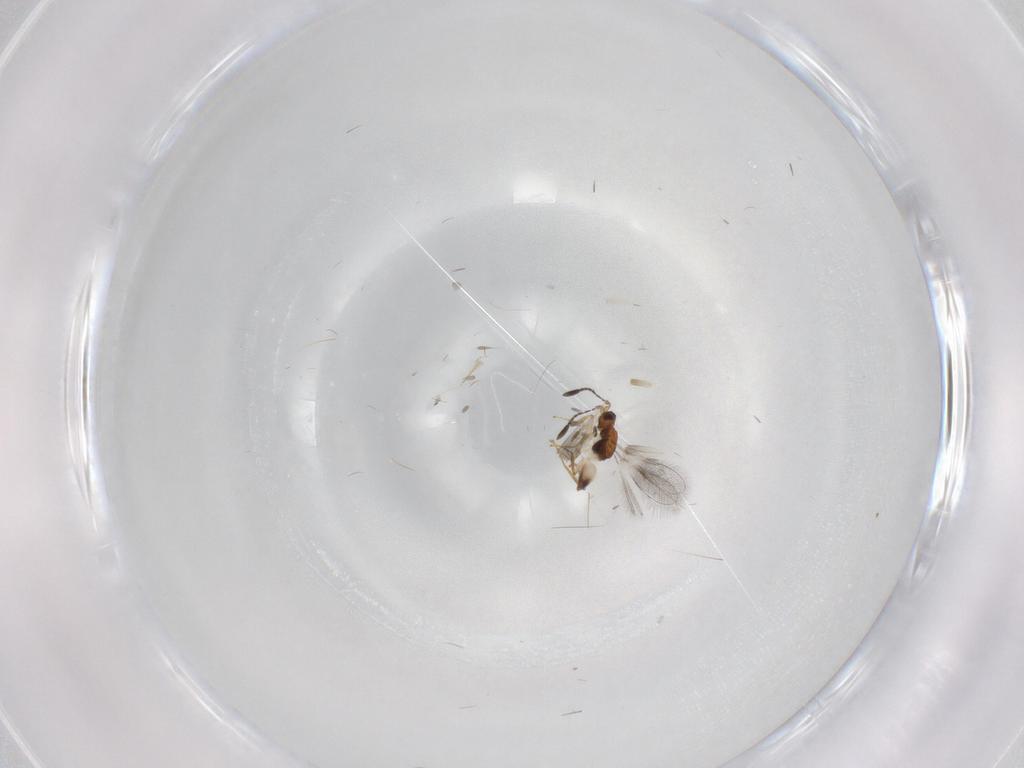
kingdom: Animalia
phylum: Arthropoda
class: Insecta
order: Hymenoptera
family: Mymaridae
